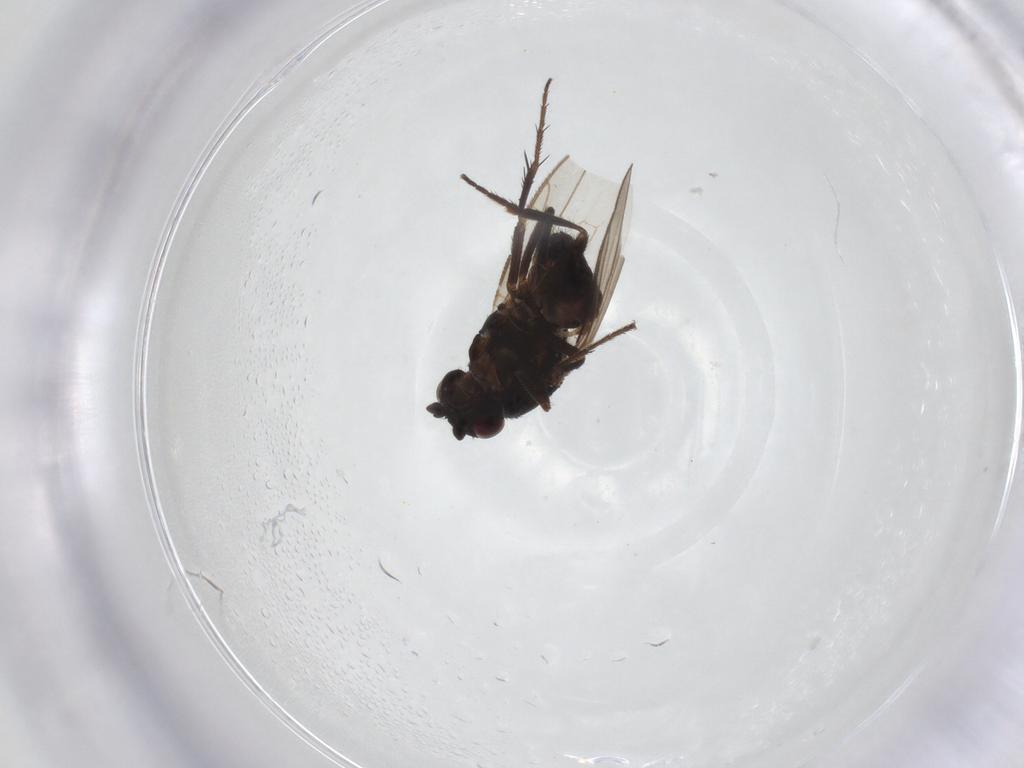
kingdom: Animalia
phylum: Arthropoda
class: Insecta
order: Diptera
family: Sphaeroceridae
